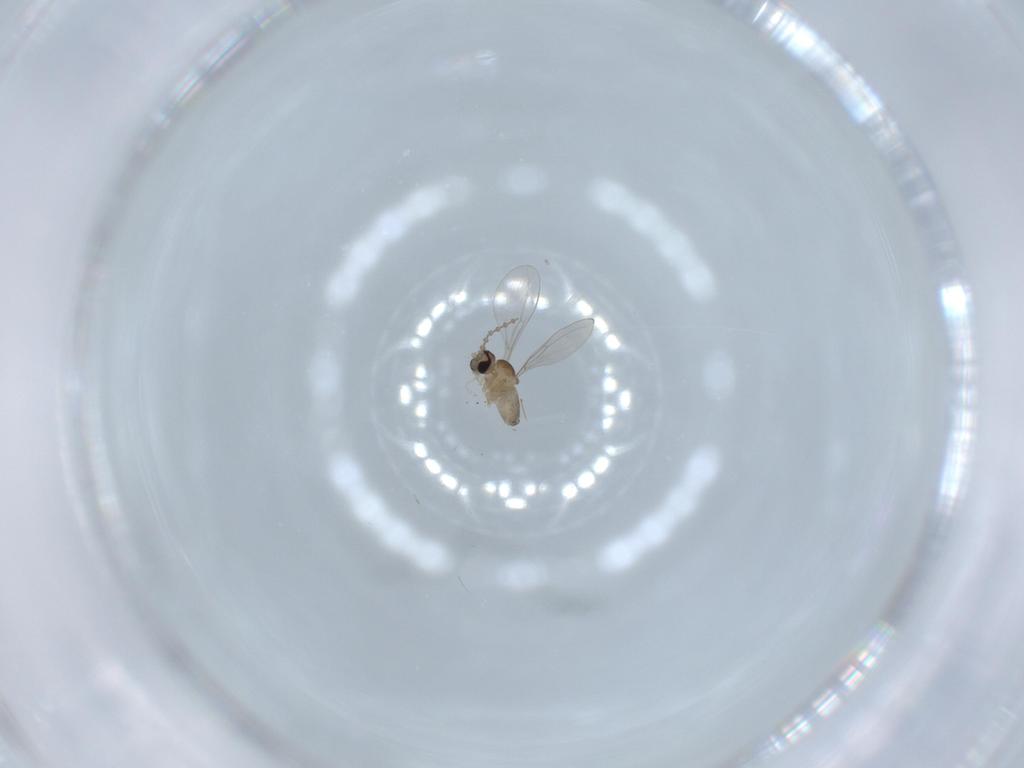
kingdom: Animalia
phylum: Arthropoda
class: Insecta
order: Diptera
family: Cecidomyiidae
